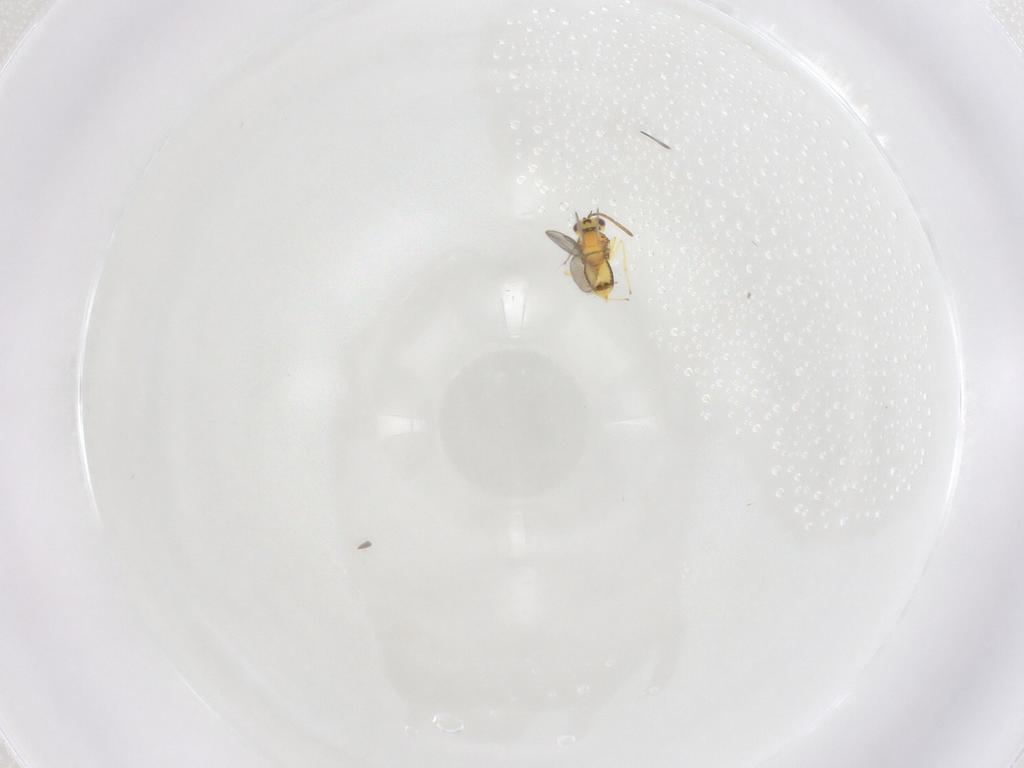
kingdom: Animalia
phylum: Arthropoda
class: Insecta
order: Hymenoptera
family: Aphelinidae
